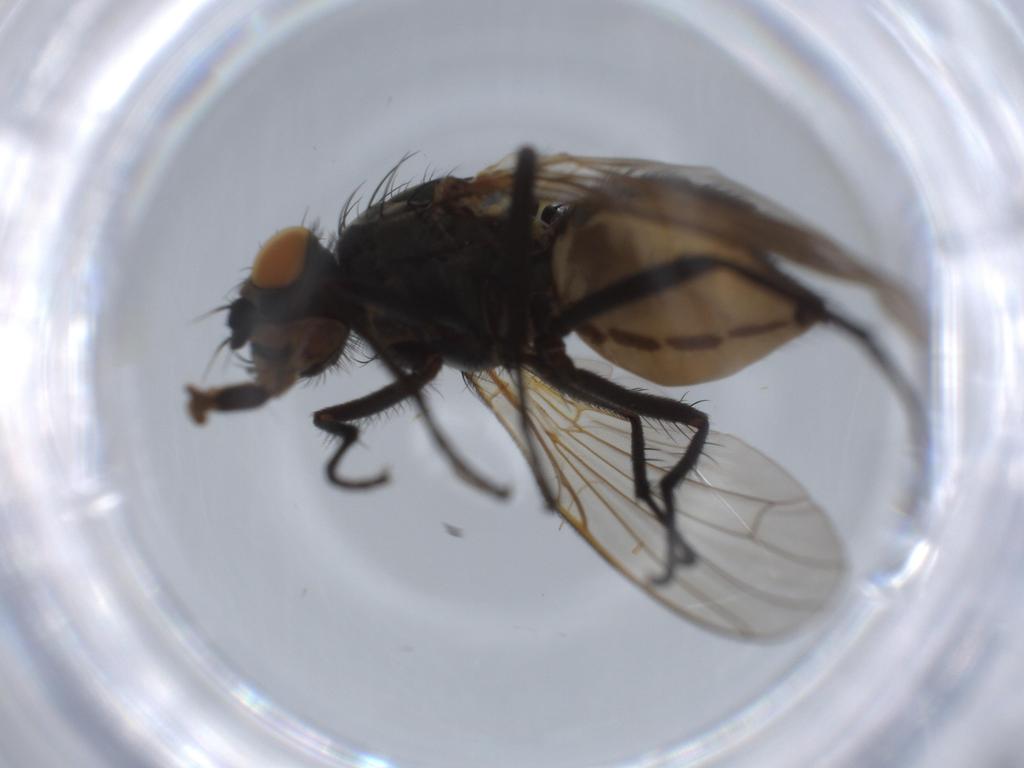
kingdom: Animalia
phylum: Arthropoda
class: Insecta
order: Diptera
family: Anthomyiidae
